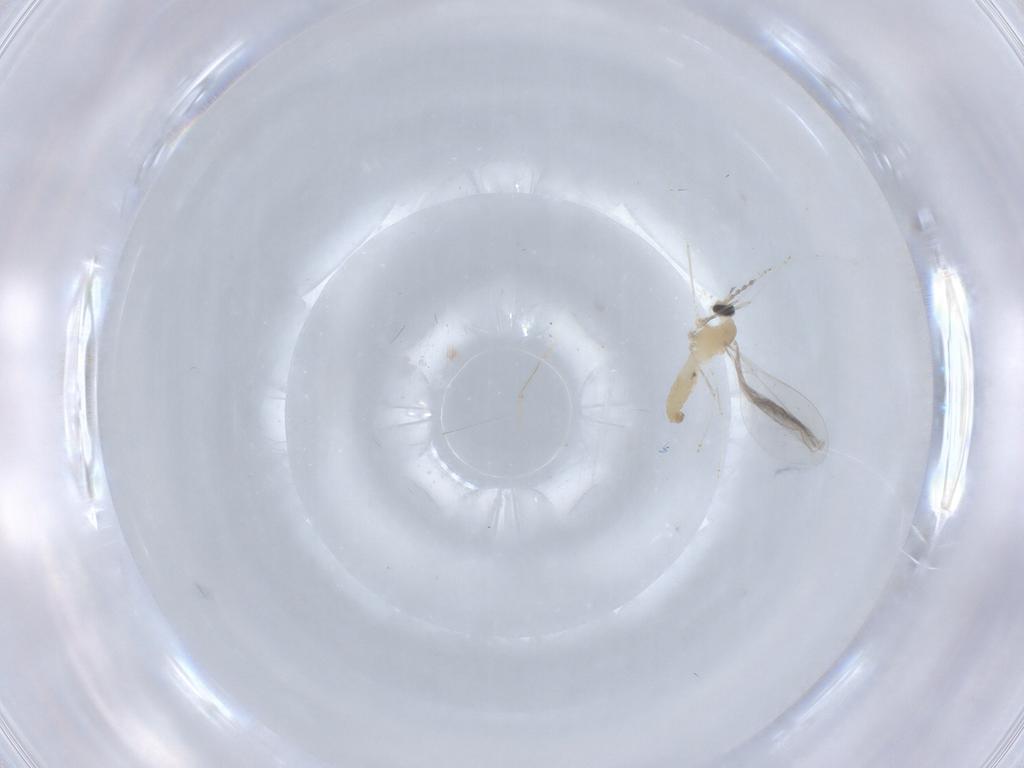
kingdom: Animalia
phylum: Arthropoda
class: Insecta
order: Diptera
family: Cecidomyiidae
